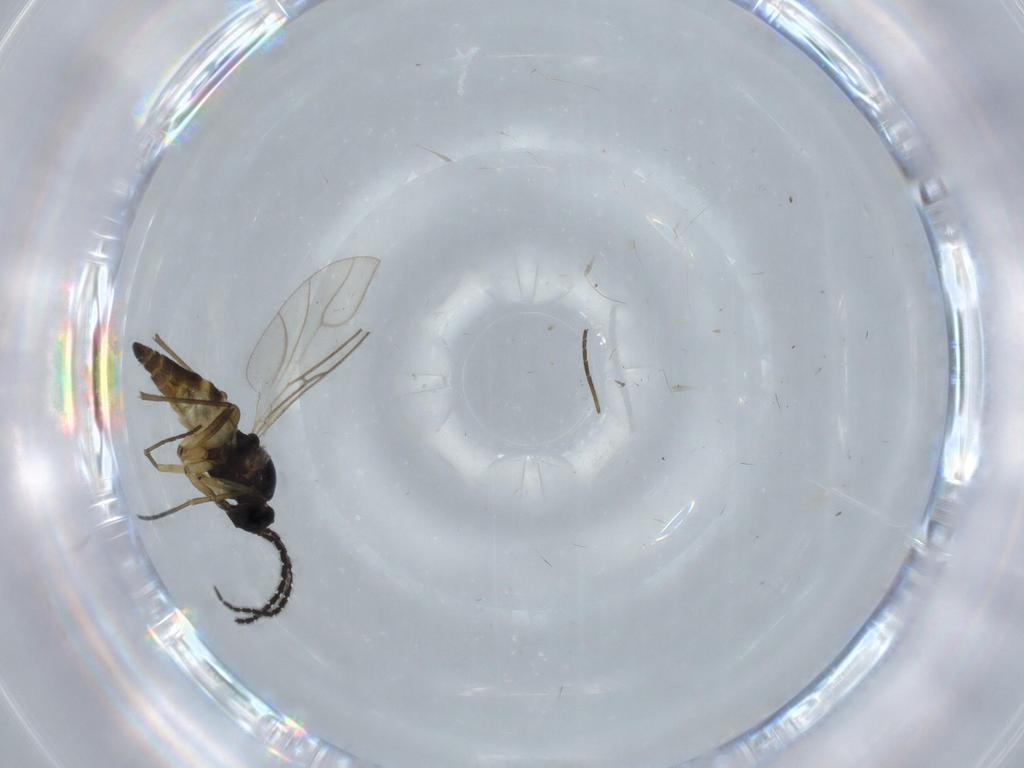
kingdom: Animalia
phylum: Arthropoda
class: Insecta
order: Diptera
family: Sciaridae
